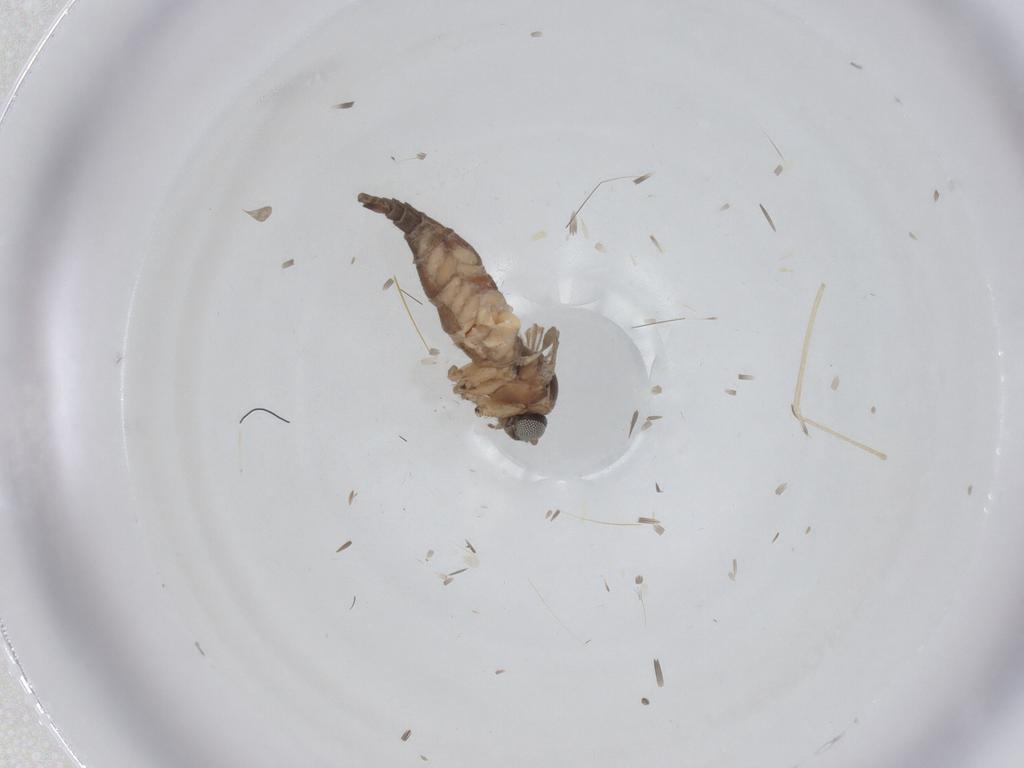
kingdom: Animalia
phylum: Arthropoda
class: Insecta
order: Diptera
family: Sciaridae
